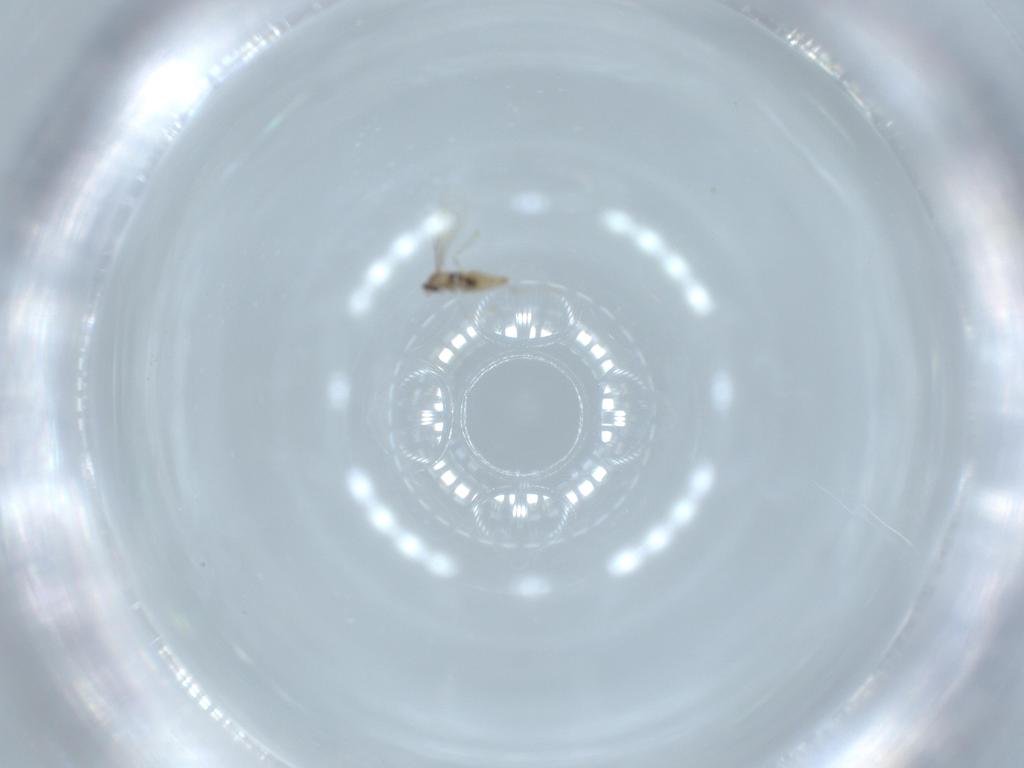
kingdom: Animalia
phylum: Arthropoda
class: Insecta
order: Diptera
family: Cecidomyiidae
